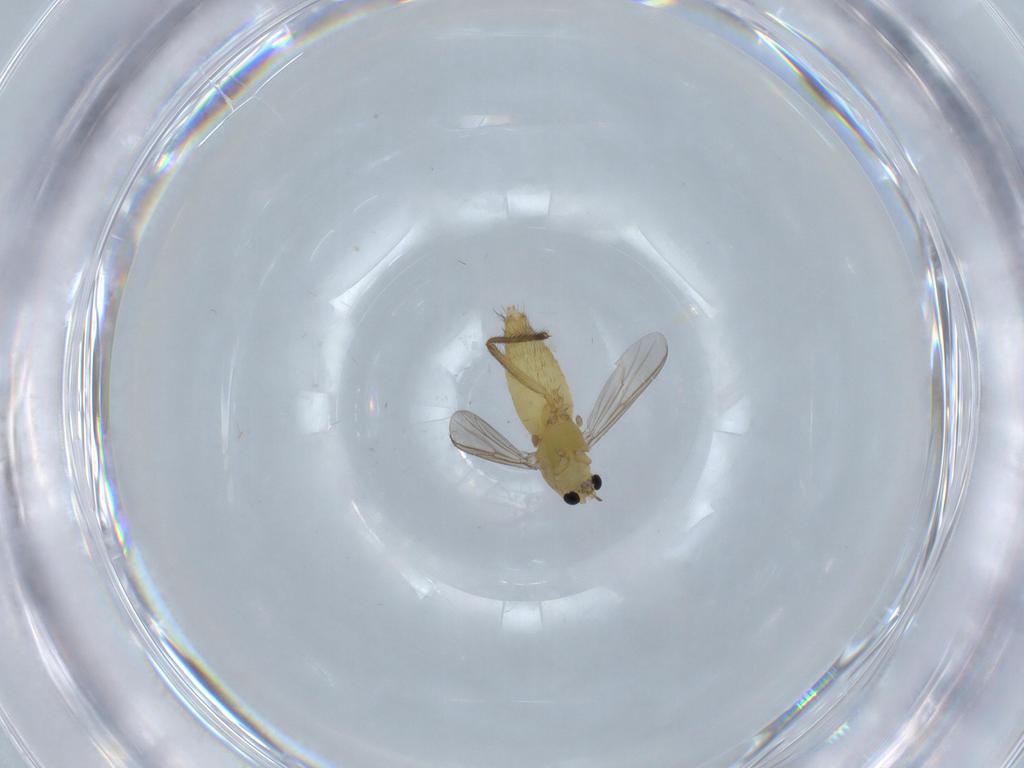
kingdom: Animalia
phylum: Arthropoda
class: Insecta
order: Diptera
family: Chironomidae
